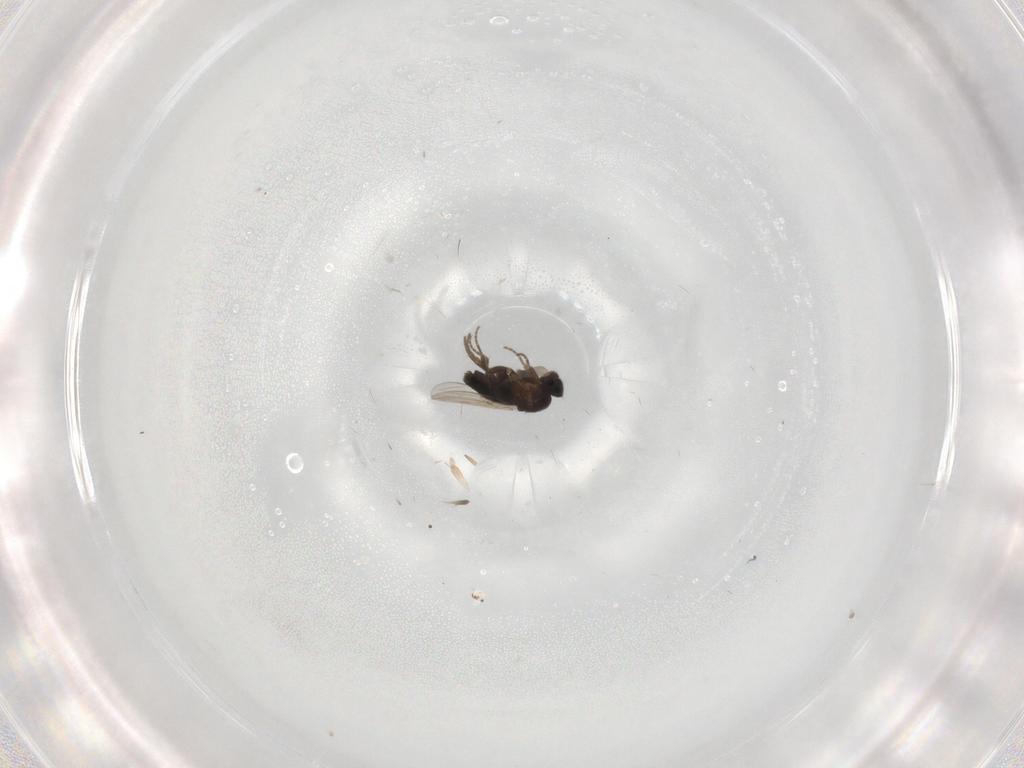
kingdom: Animalia
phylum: Arthropoda
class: Insecta
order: Diptera
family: Phoridae
